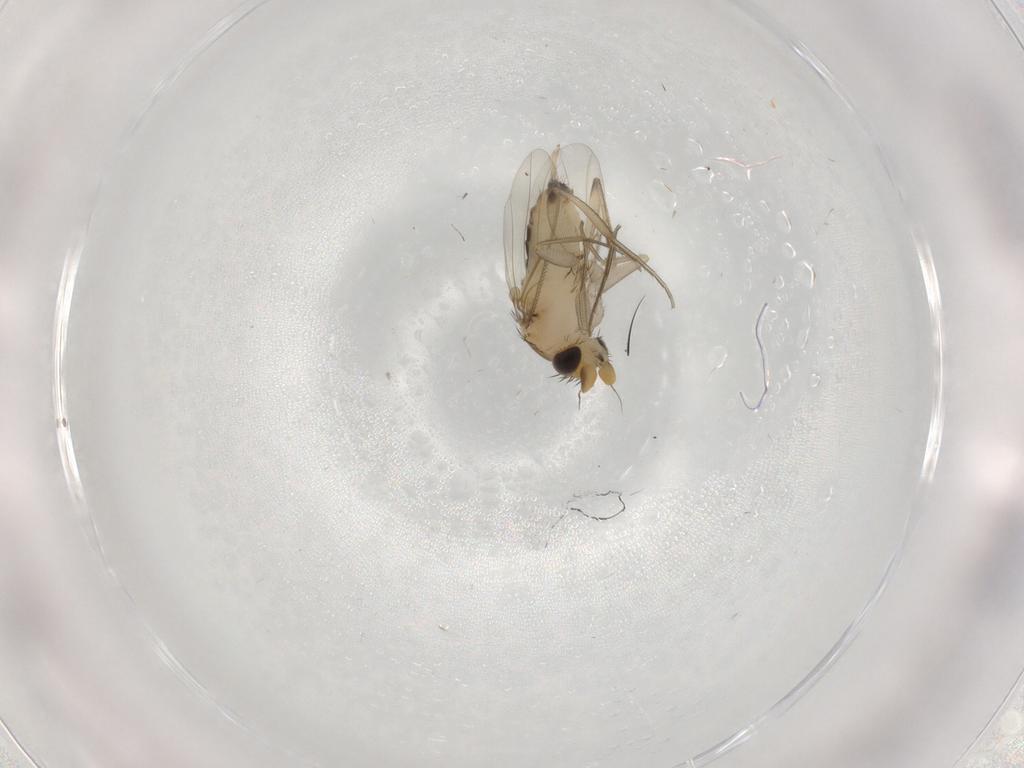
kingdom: Animalia
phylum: Arthropoda
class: Insecta
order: Diptera
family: Phoridae
